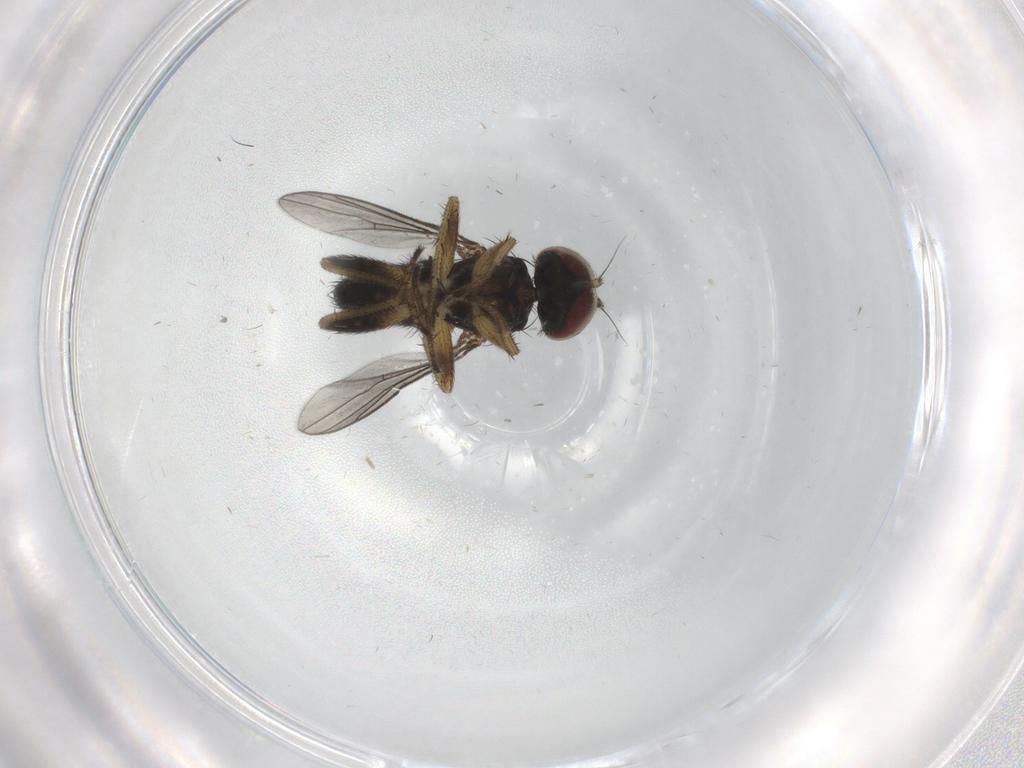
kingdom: Animalia
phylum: Arthropoda
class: Insecta
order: Diptera
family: Dolichopodidae
